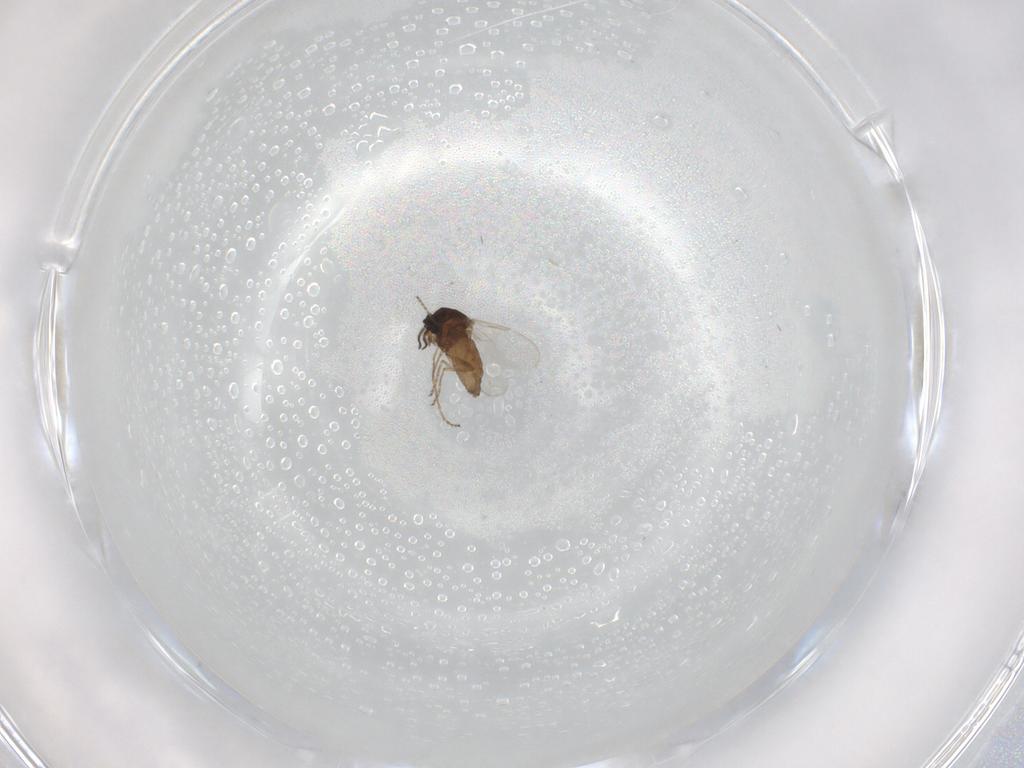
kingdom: Animalia
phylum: Arthropoda
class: Insecta
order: Diptera
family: Ceratopogonidae
